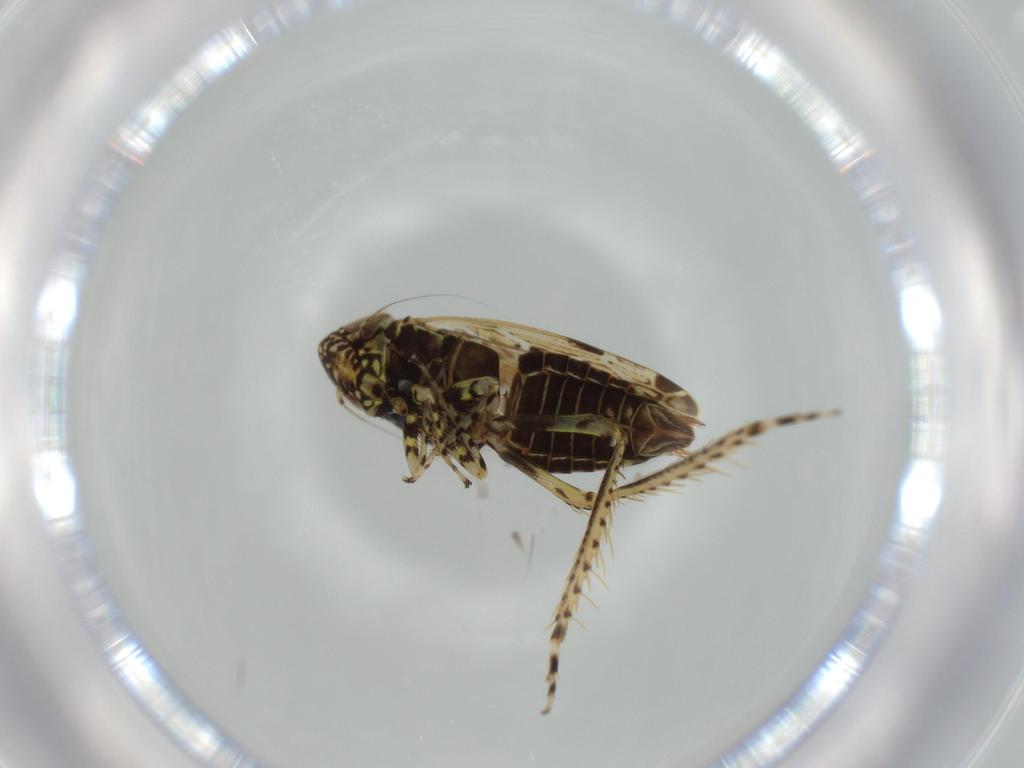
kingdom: Animalia
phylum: Arthropoda
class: Insecta
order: Hemiptera
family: Cicadellidae
